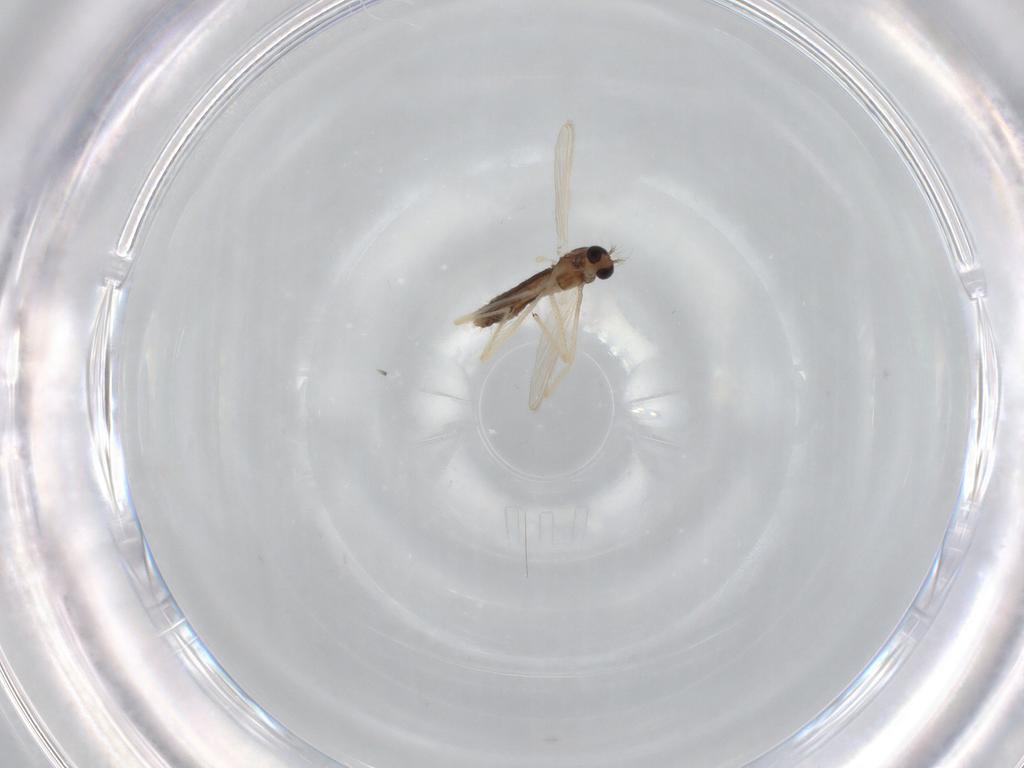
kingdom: Animalia
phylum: Arthropoda
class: Insecta
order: Diptera
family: Chironomidae
